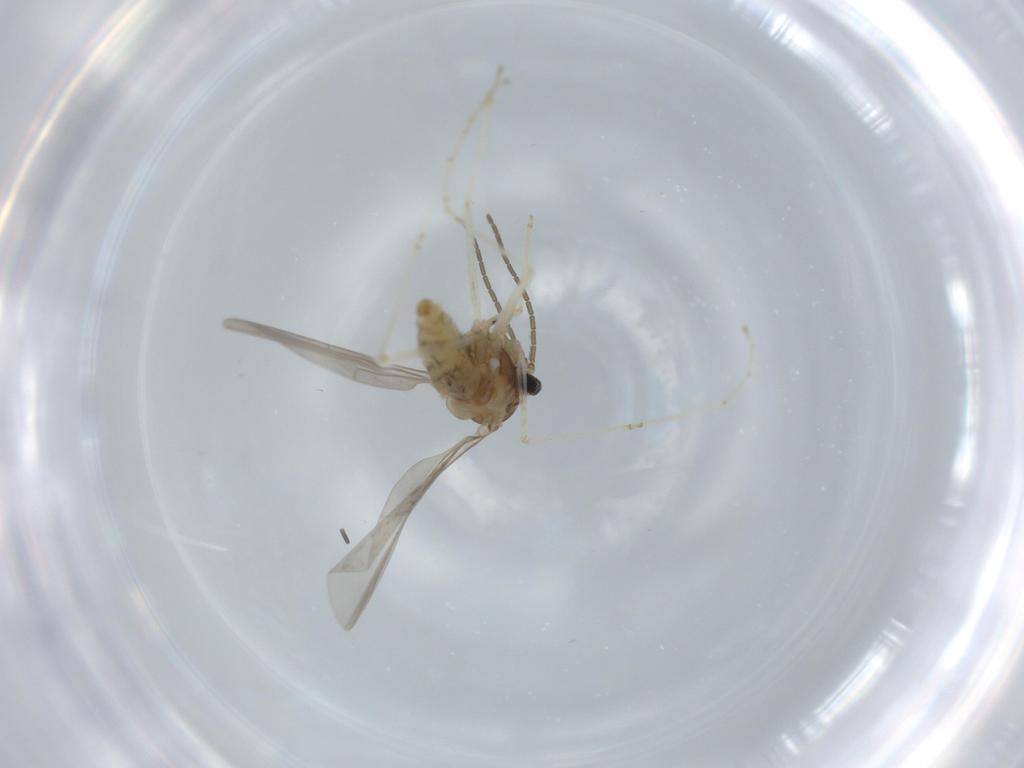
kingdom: Animalia
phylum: Arthropoda
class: Insecta
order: Diptera
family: Cecidomyiidae
